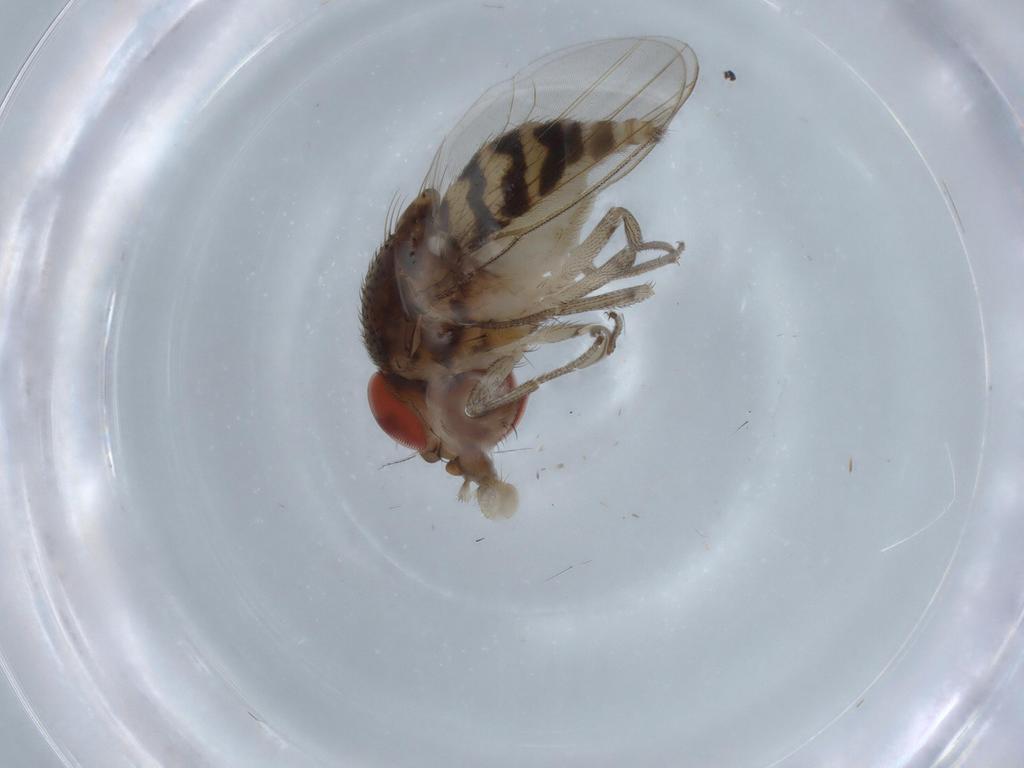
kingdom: Animalia
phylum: Arthropoda
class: Insecta
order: Diptera
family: Drosophilidae
